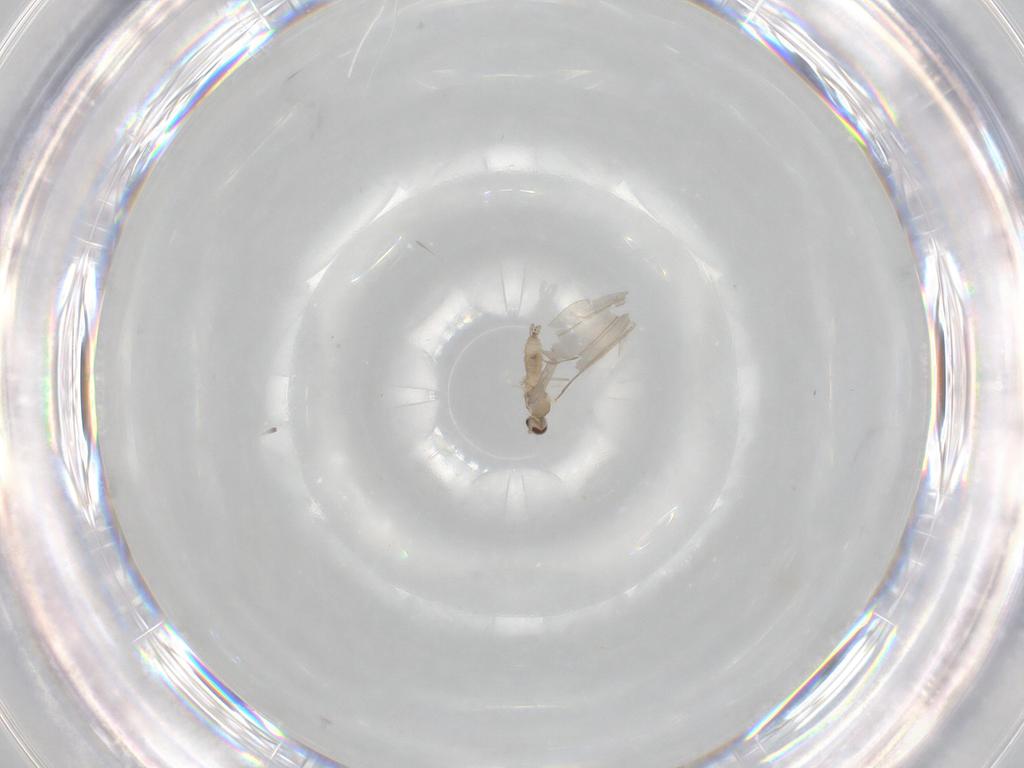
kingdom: Animalia
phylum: Arthropoda
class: Insecta
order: Diptera
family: Cecidomyiidae
